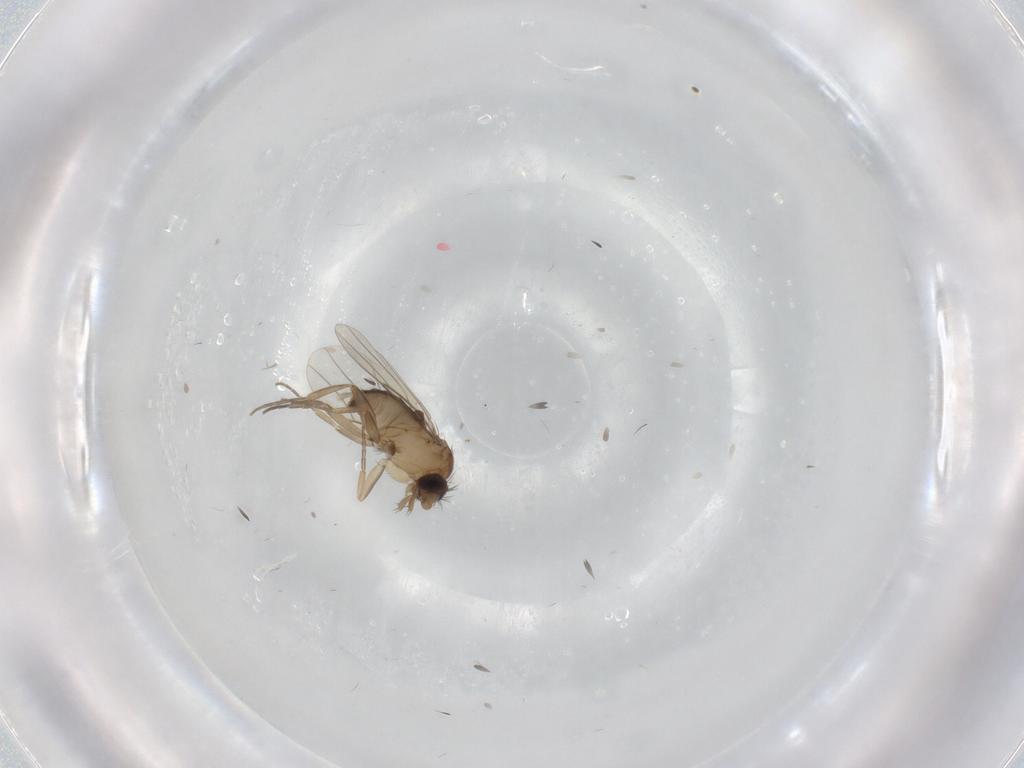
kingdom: Animalia
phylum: Arthropoda
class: Insecta
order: Diptera
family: Phoridae
